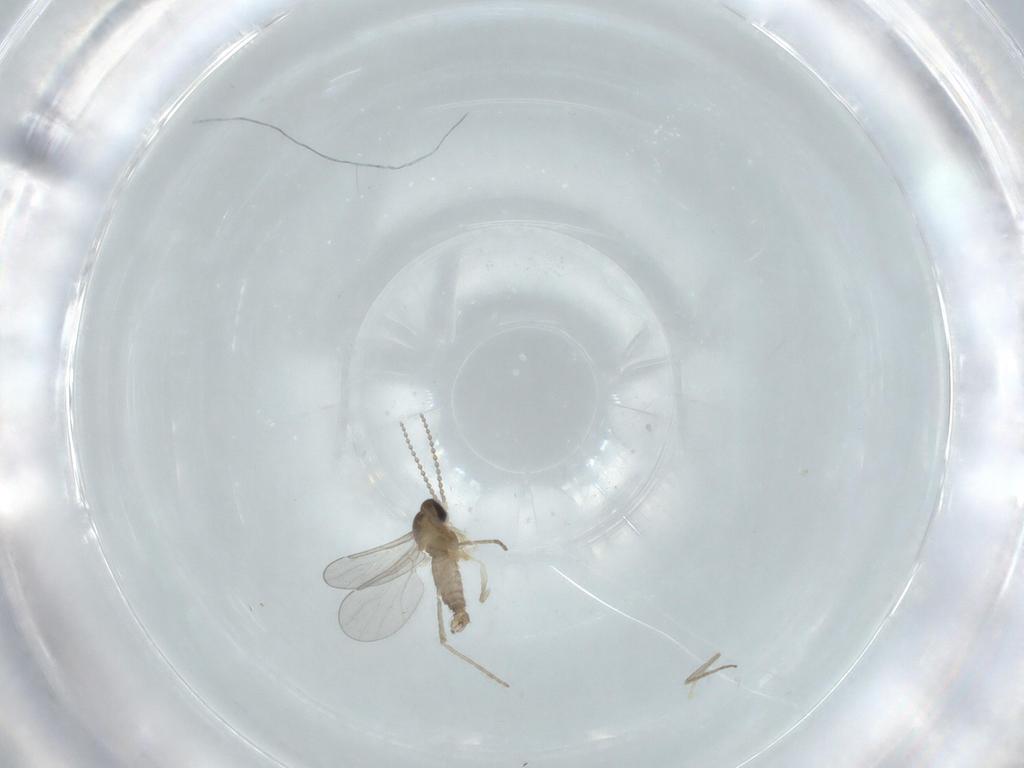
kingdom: Animalia
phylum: Arthropoda
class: Insecta
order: Diptera
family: Cecidomyiidae
